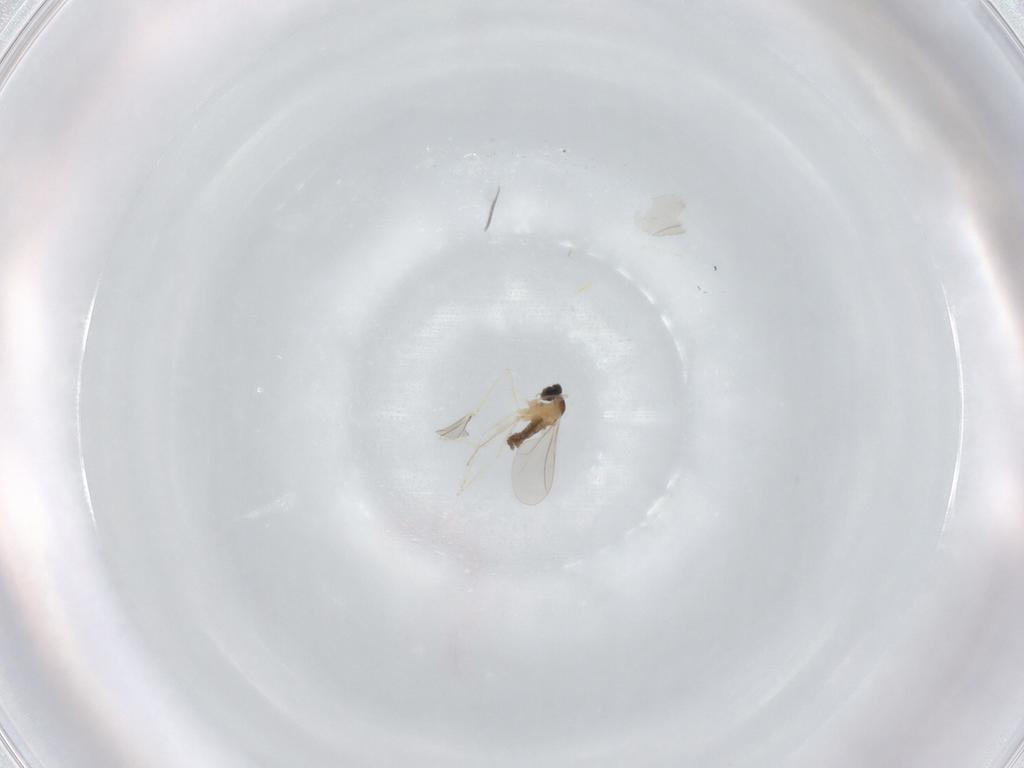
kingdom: Animalia
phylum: Arthropoda
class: Insecta
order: Diptera
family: Cecidomyiidae
